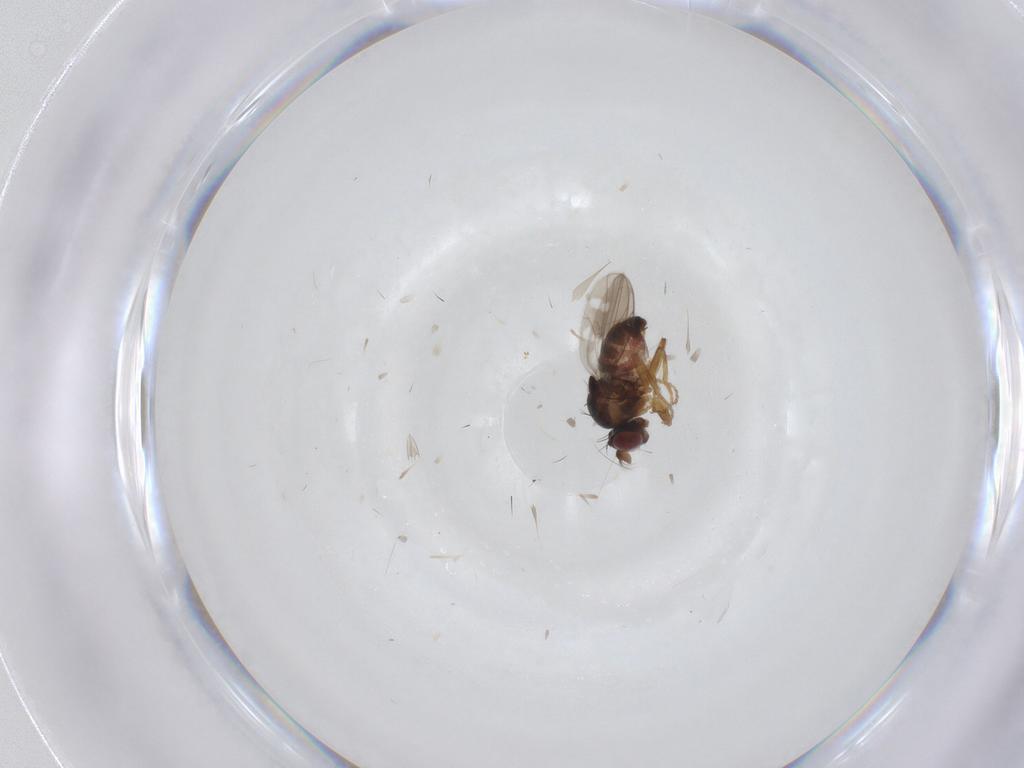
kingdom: Animalia
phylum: Arthropoda
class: Insecta
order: Diptera
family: Ephydridae
